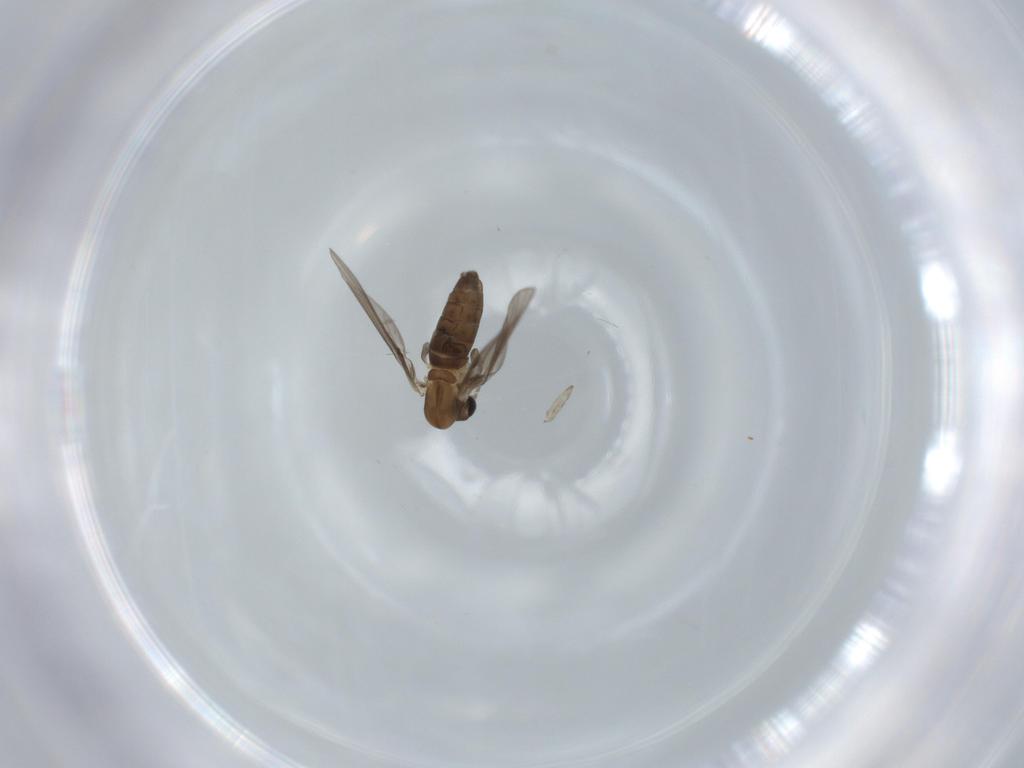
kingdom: Animalia
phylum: Arthropoda
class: Insecta
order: Diptera
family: Psychodidae
